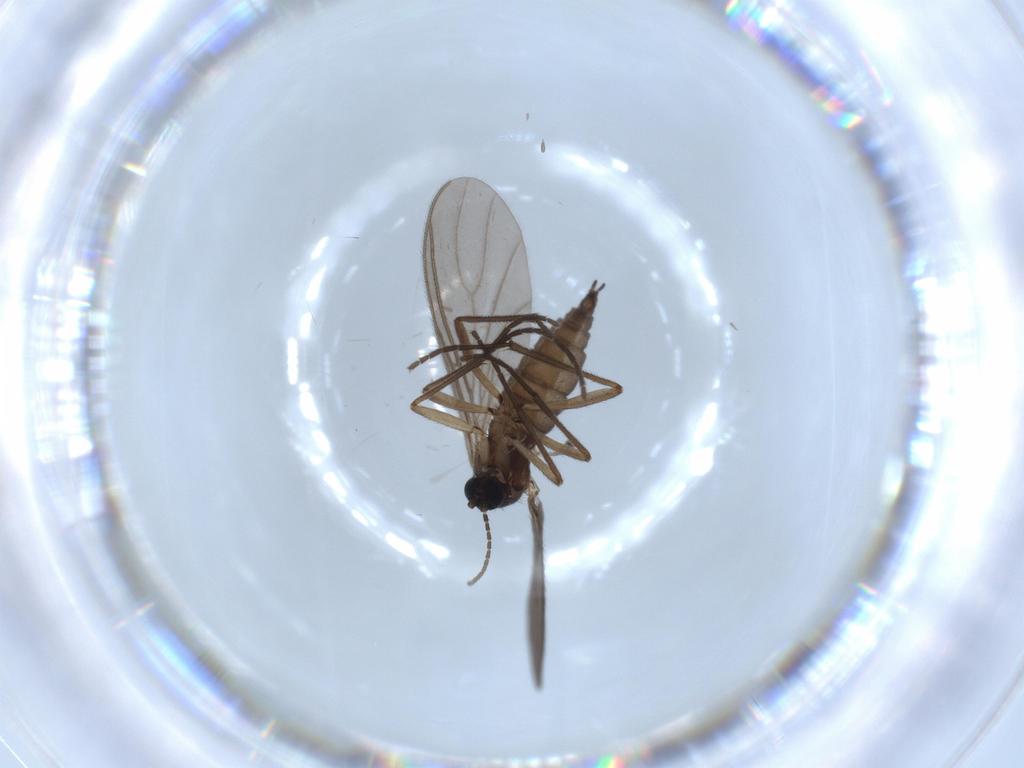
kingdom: Animalia
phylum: Arthropoda
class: Insecta
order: Diptera
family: Sciaridae
